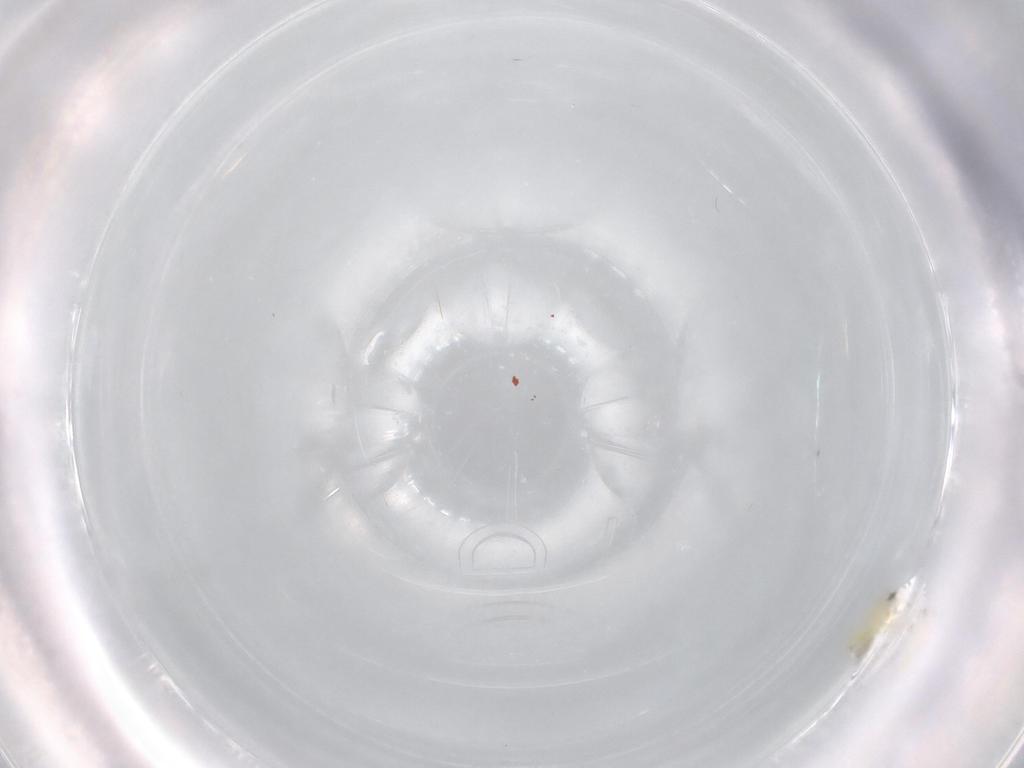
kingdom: Animalia
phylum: Arthropoda
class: Insecta
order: Diptera
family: Cecidomyiidae
